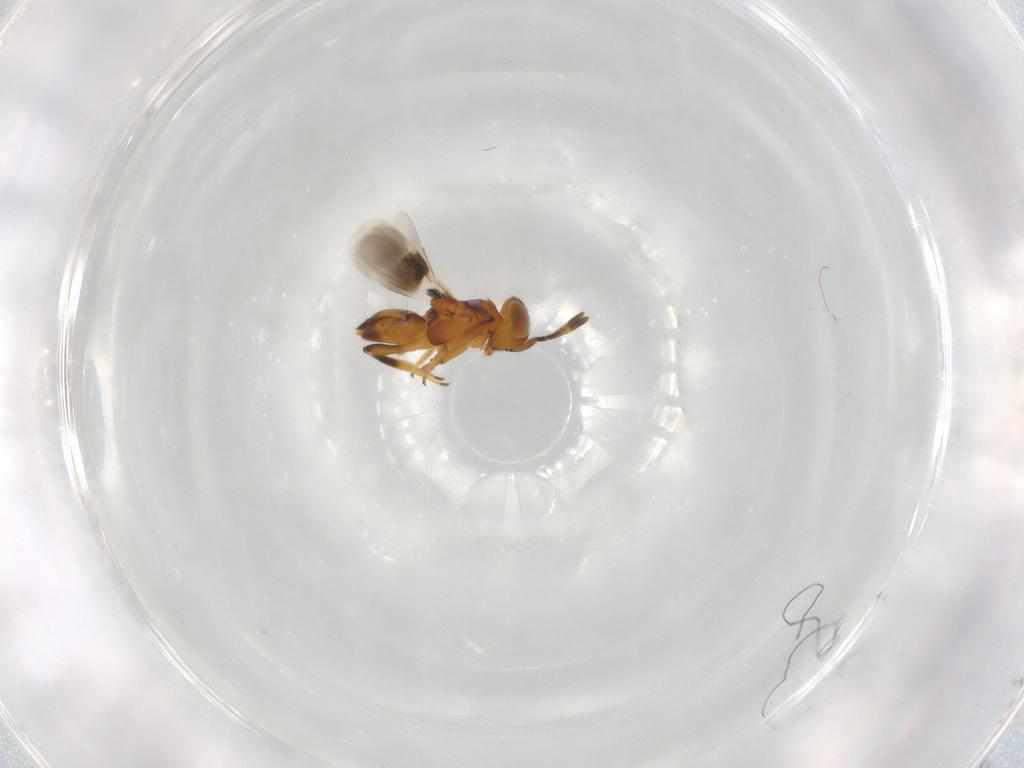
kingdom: Animalia
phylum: Arthropoda
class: Insecta
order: Hymenoptera
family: Encyrtidae
